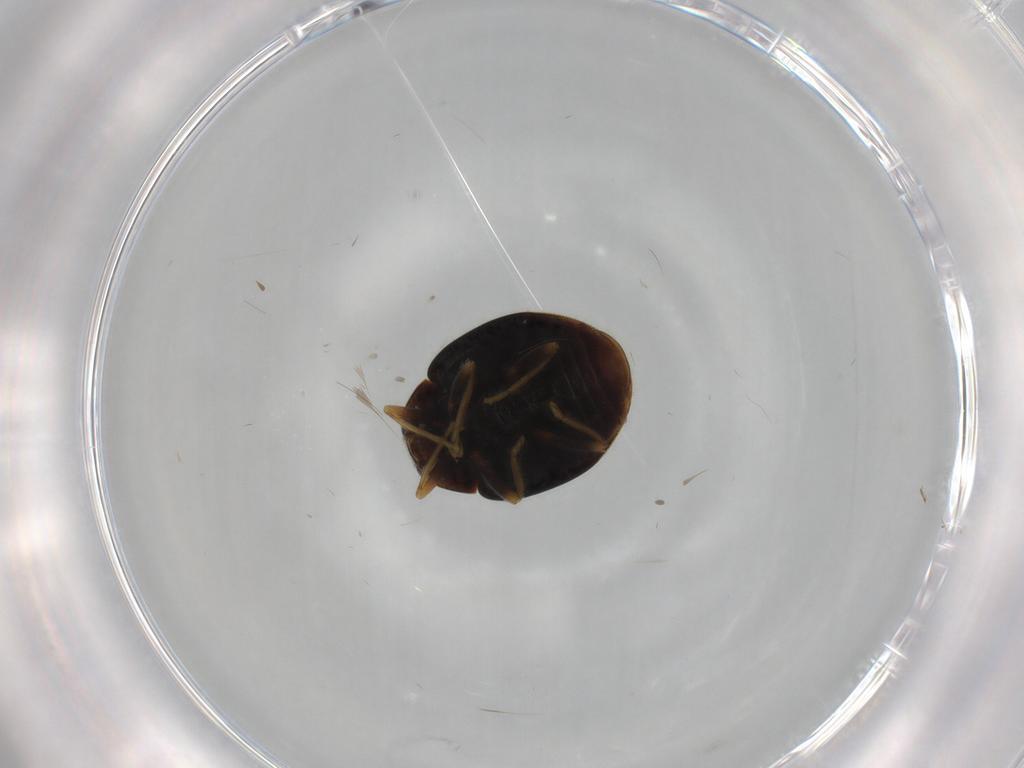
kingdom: Animalia
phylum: Arthropoda
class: Insecta
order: Coleoptera
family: Coccinellidae
